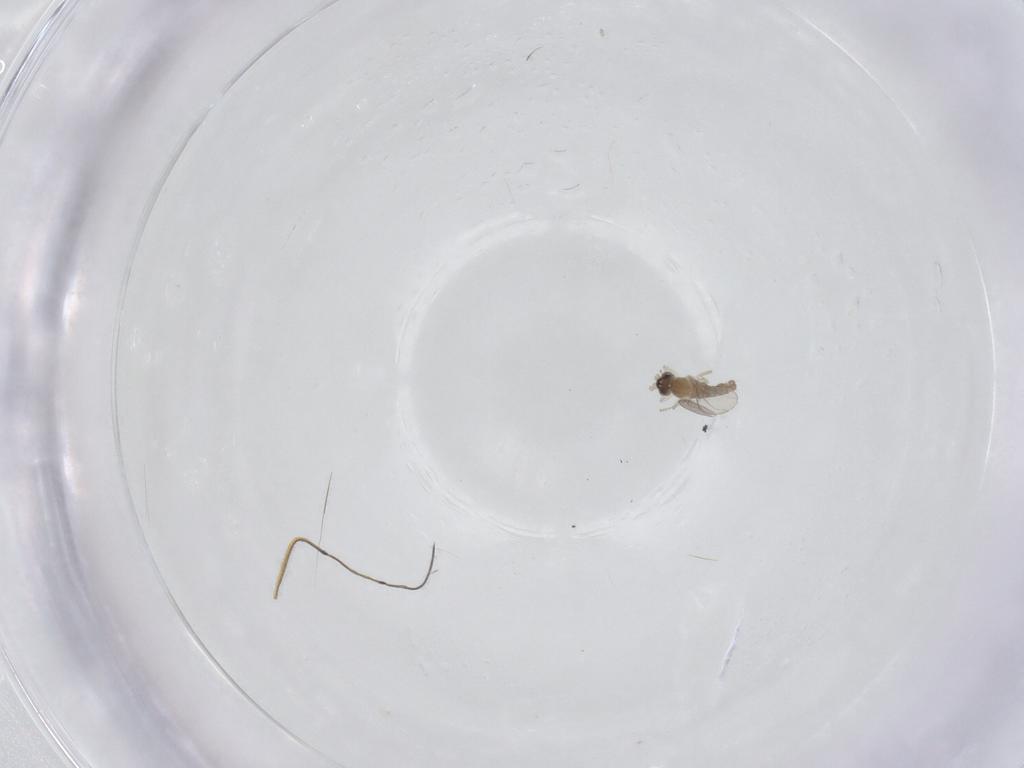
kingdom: Animalia
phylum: Arthropoda
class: Insecta
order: Diptera
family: Cecidomyiidae
